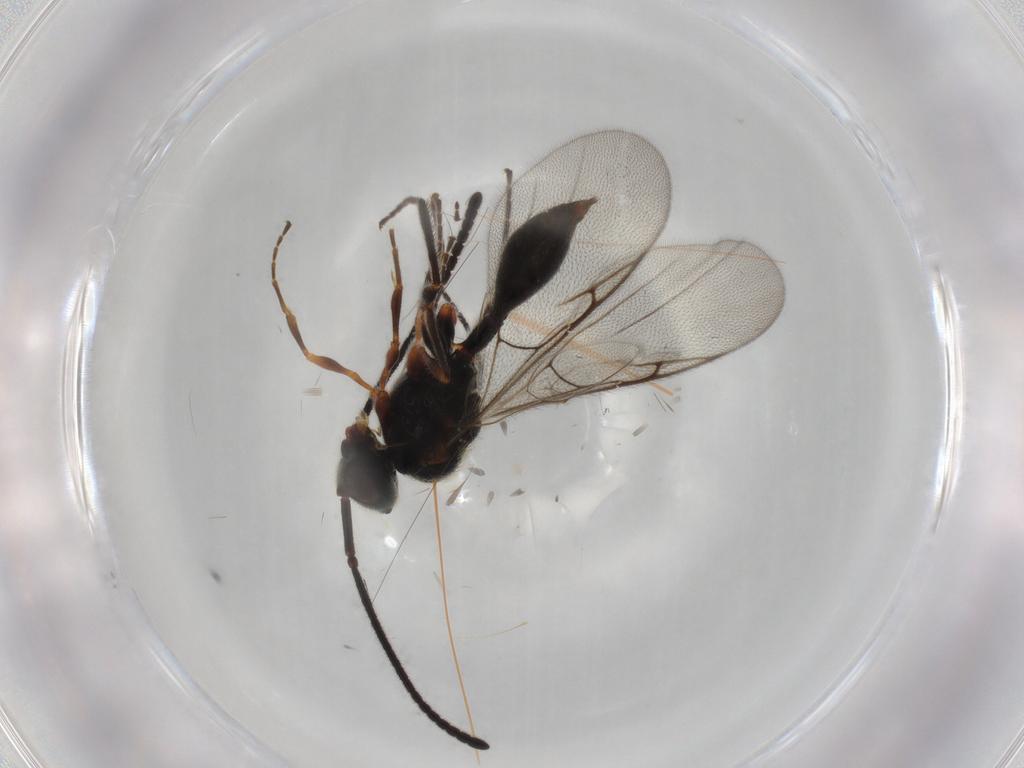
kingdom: Animalia
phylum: Arthropoda
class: Insecta
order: Hymenoptera
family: Diapriidae
